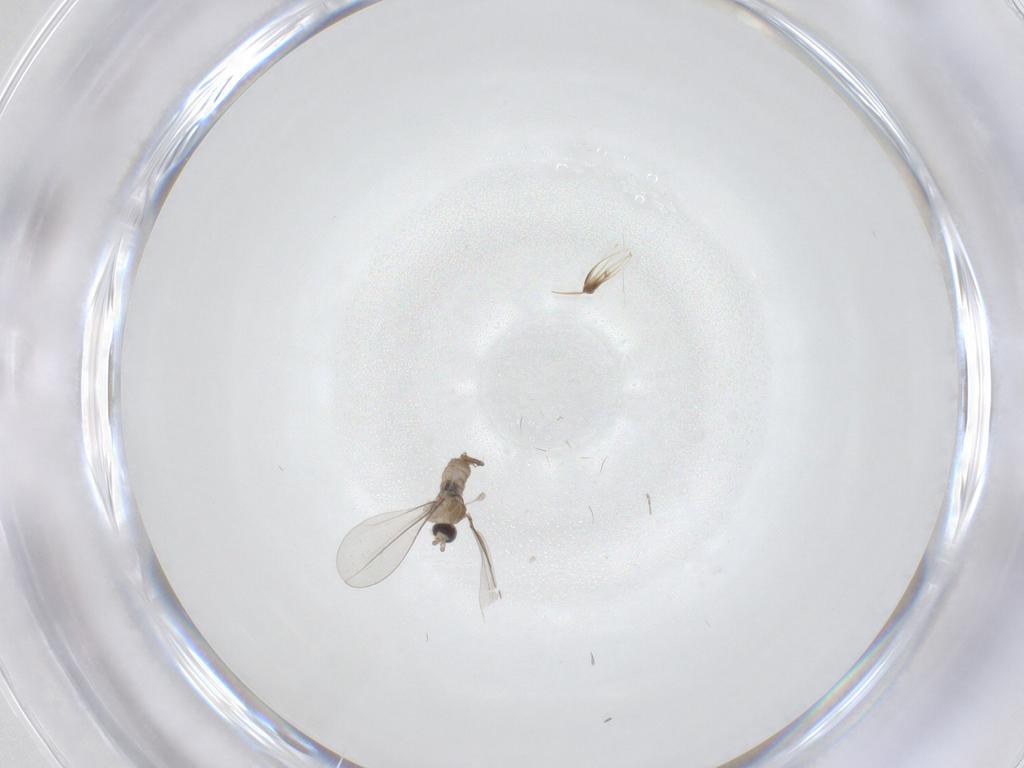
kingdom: Animalia
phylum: Arthropoda
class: Insecta
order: Diptera
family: Cecidomyiidae
